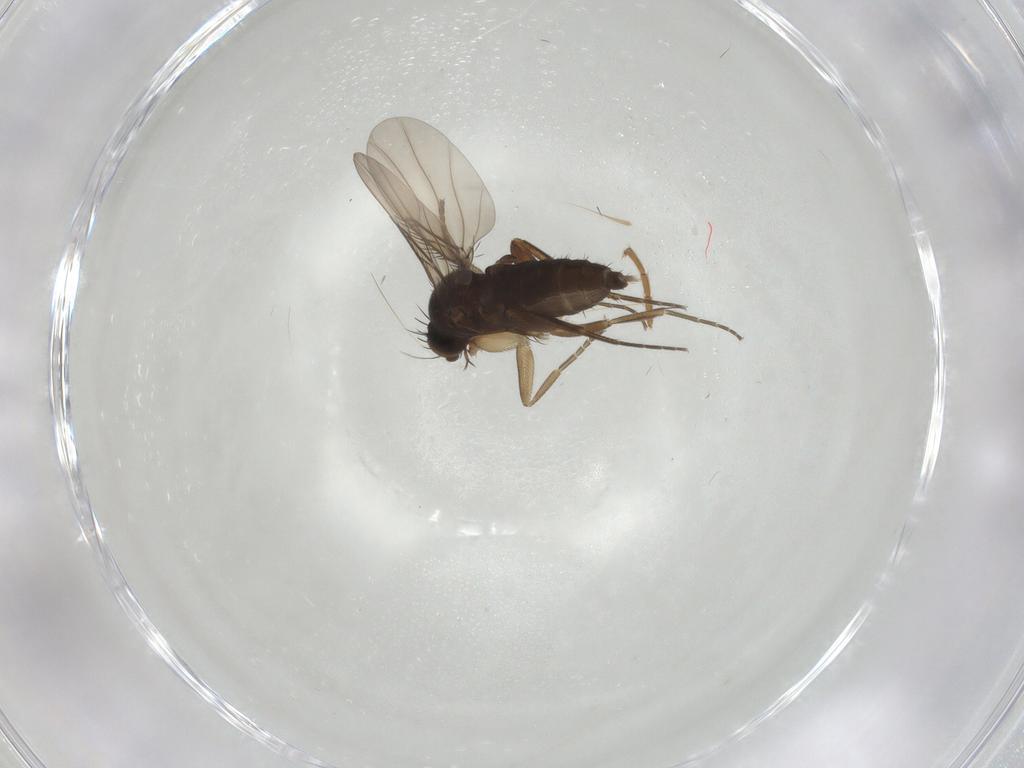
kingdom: Animalia
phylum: Arthropoda
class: Insecta
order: Diptera
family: Phoridae
